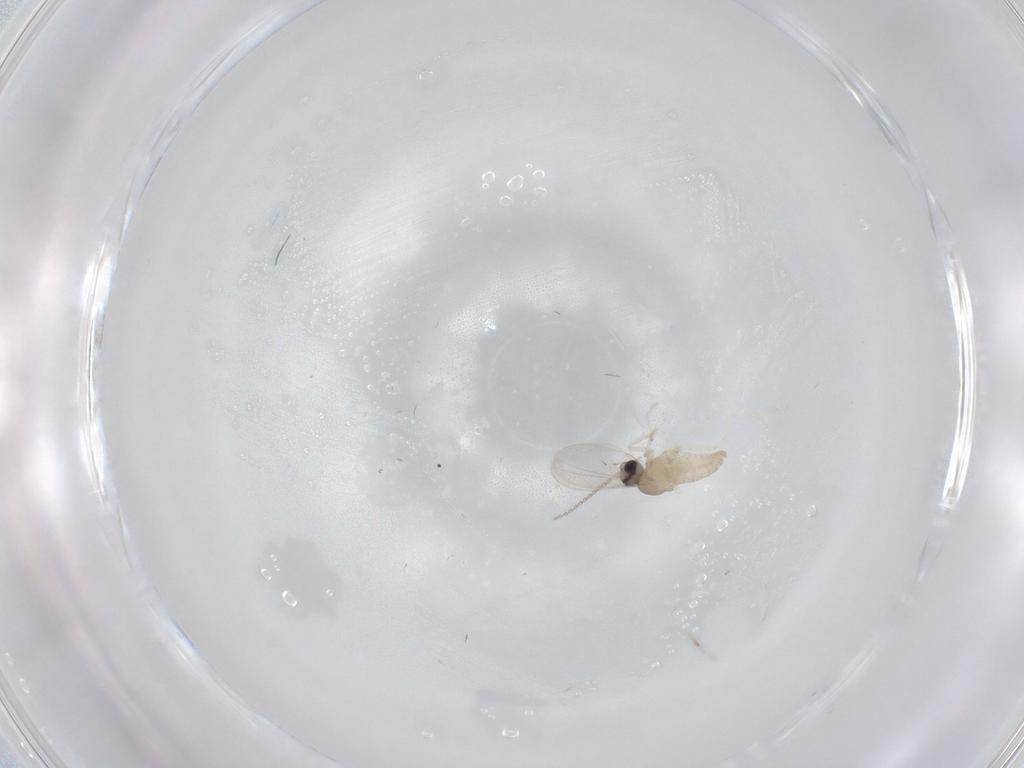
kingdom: Animalia
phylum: Arthropoda
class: Insecta
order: Diptera
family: Cecidomyiidae
